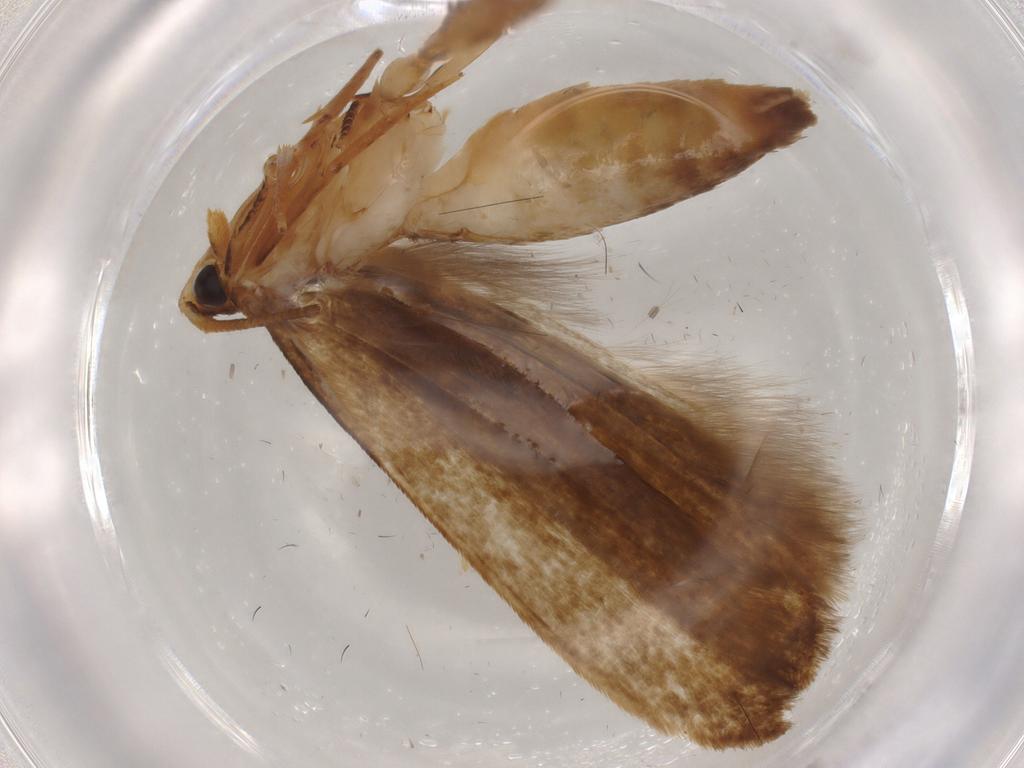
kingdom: Animalia
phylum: Arthropoda
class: Insecta
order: Lepidoptera
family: Tineidae
